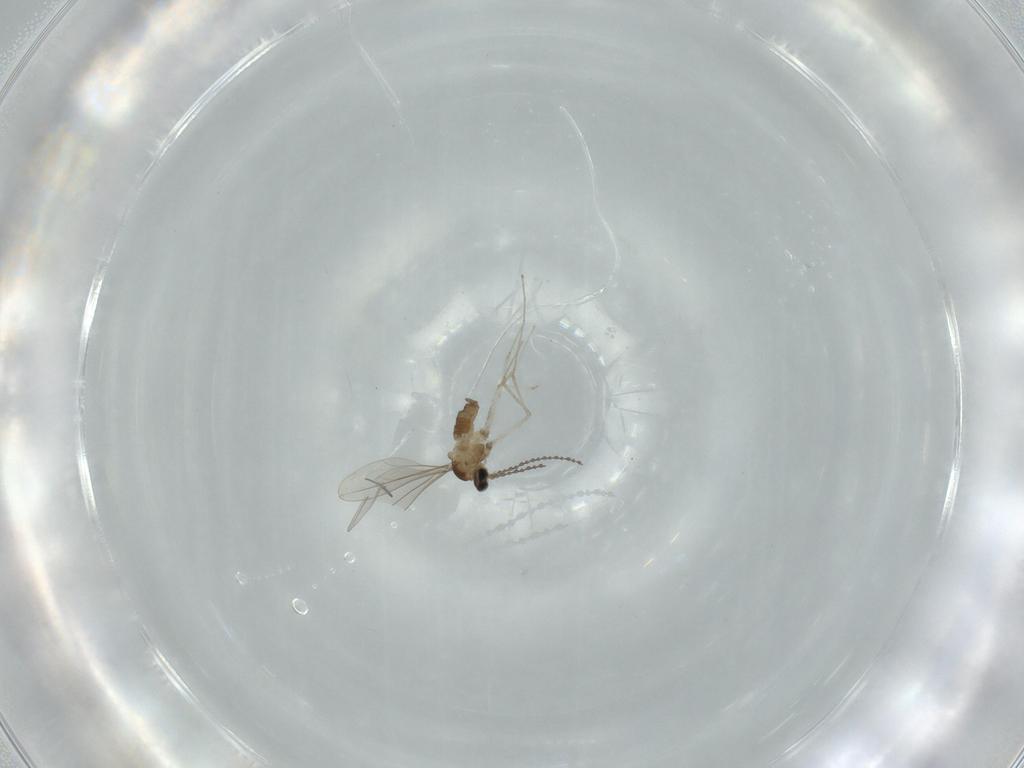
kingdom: Animalia
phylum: Arthropoda
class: Insecta
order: Diptera
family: Cecidomyiidae
